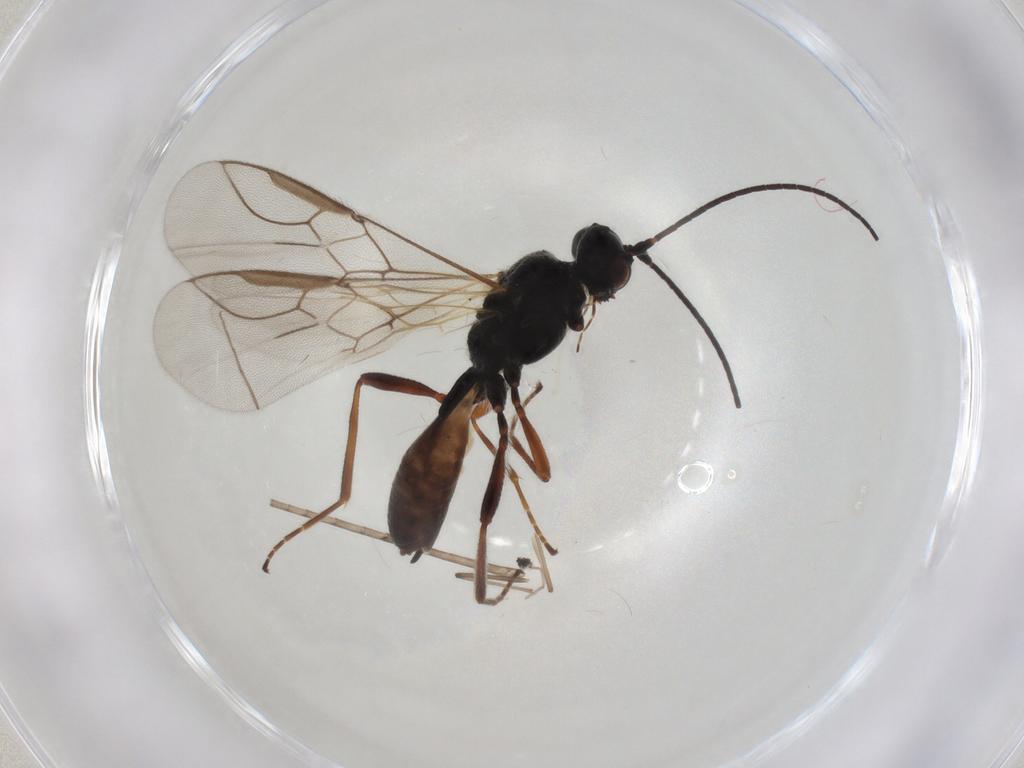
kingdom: Animalia
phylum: Arthropoda
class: Insecta
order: Hymenoptera
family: Braconidae
